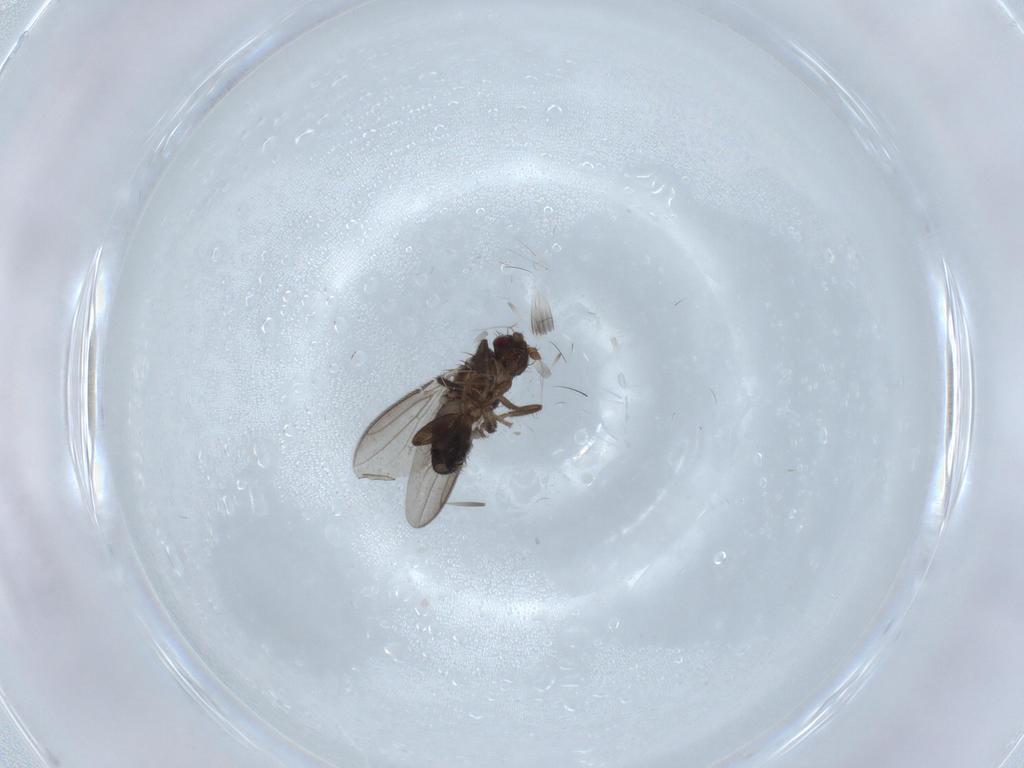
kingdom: Animalia
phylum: Arthropoda
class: Insecta
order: Diptera
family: Sphaeroceridae
